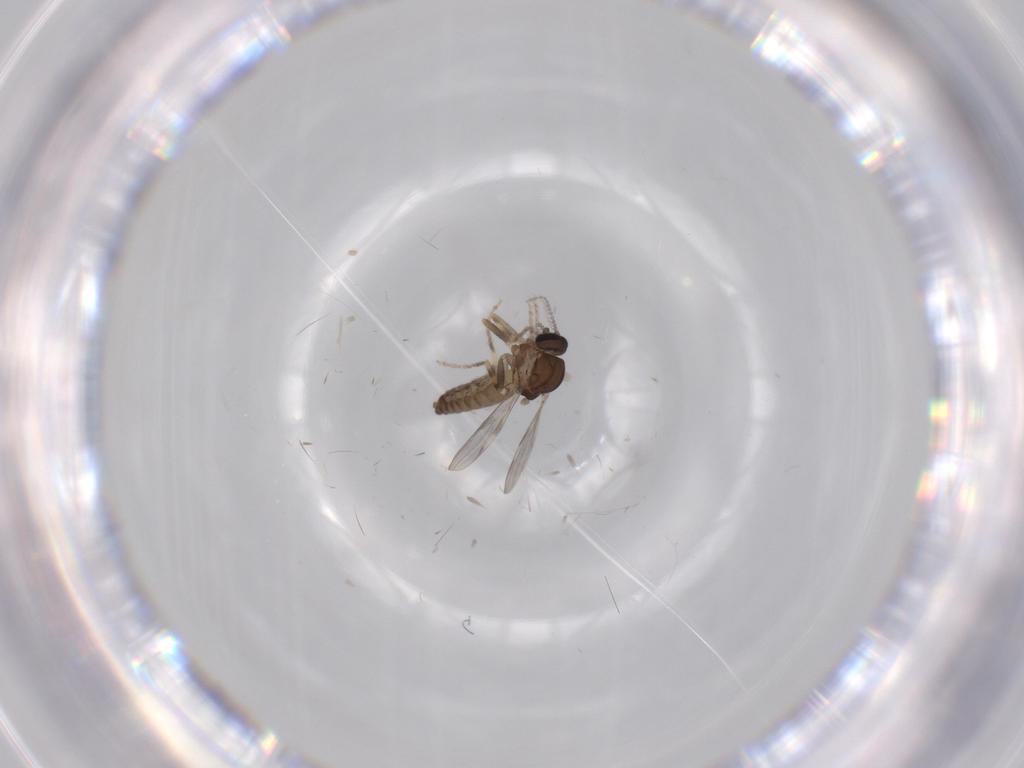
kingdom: Animalia
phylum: Arthropoda
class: Insecta
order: Diptera
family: Ceratopogonidae
